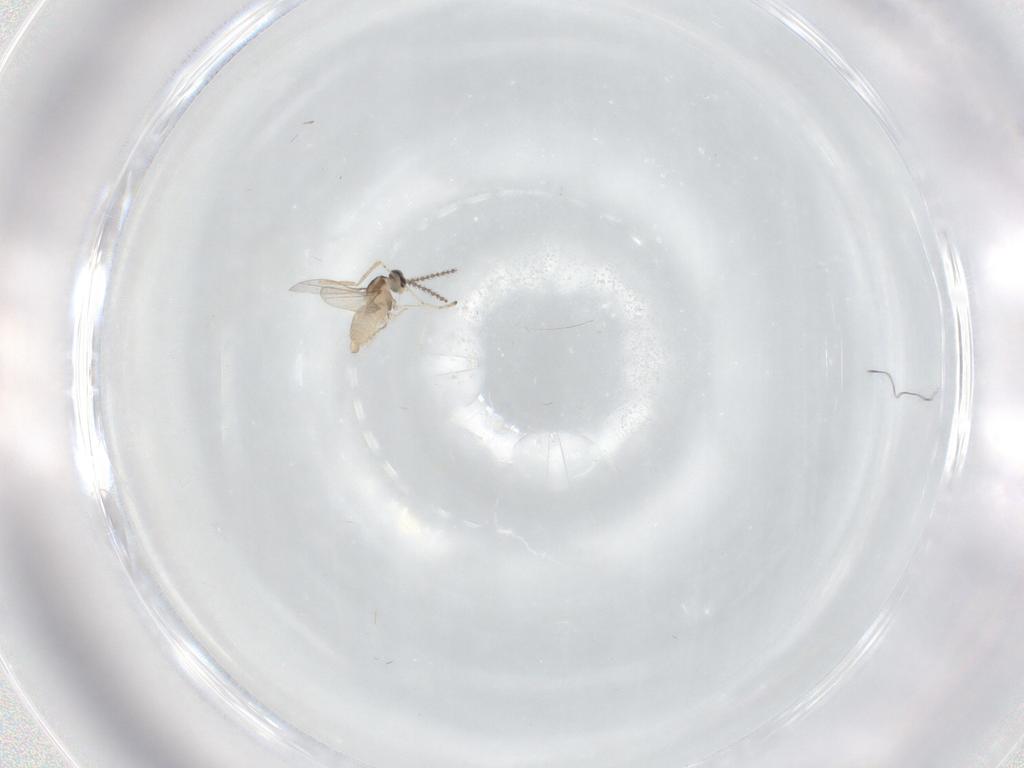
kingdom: Animalia
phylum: Arthropoda
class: Insecta
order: Diptera
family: Cecidomyiidae
